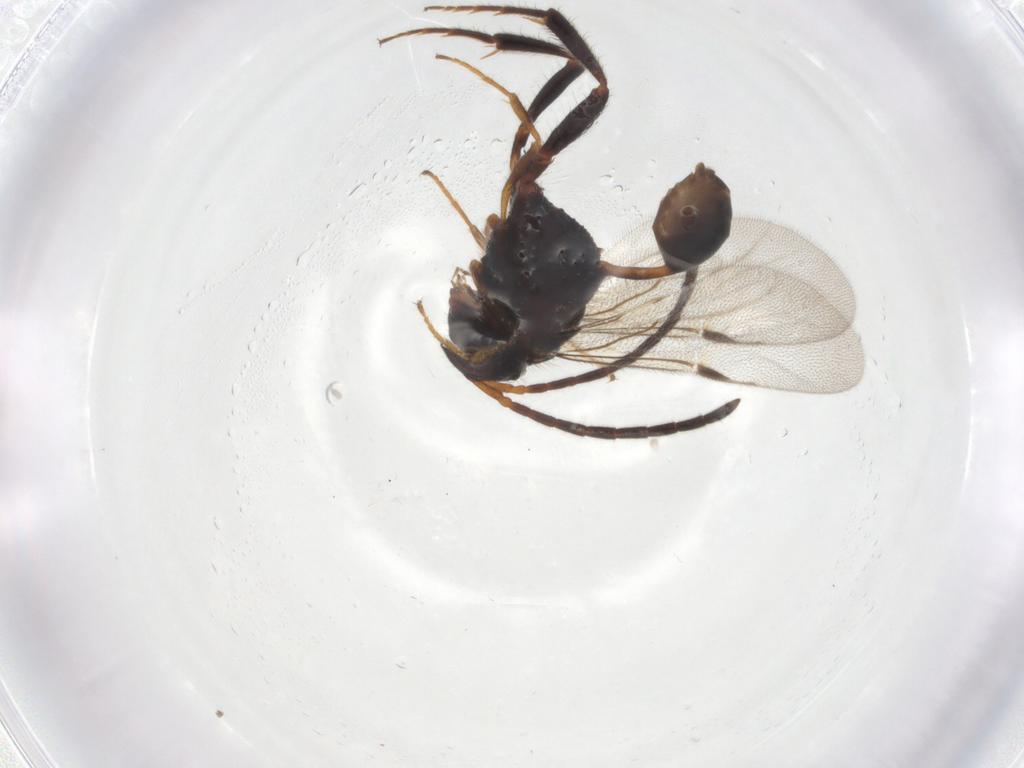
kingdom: Animalia
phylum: Arthropoda
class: Insecta
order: Hymenoptera
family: Evaniidae
